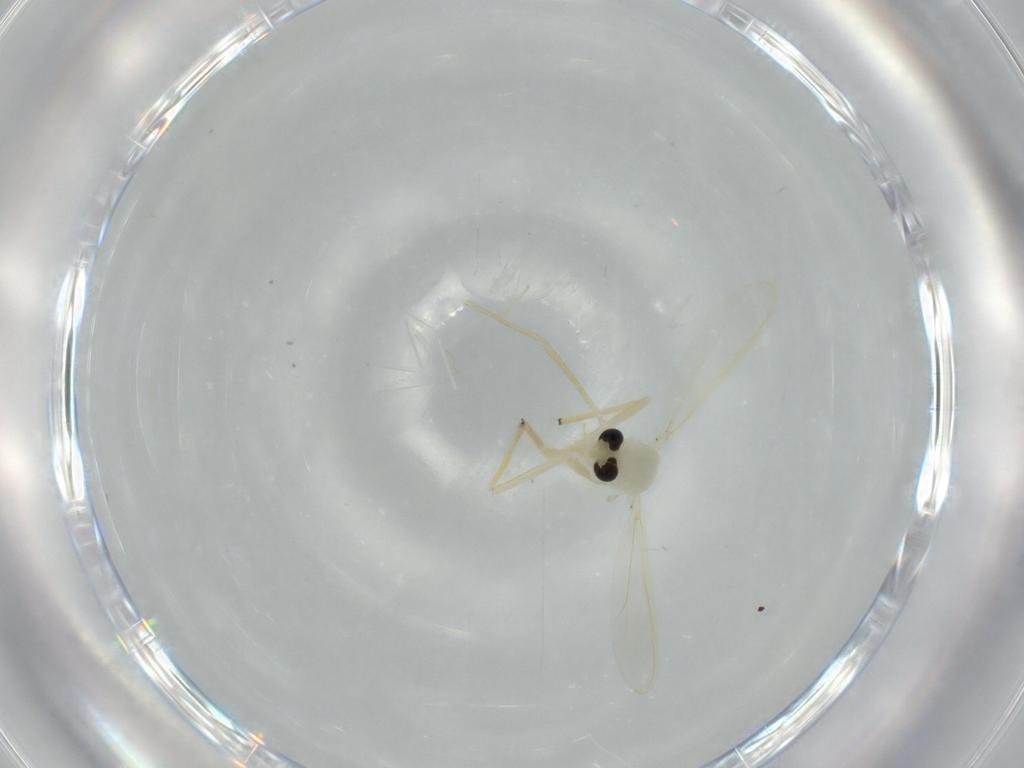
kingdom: Animalia
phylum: Arthropoda
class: Insecta
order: Diptera
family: Chironomidae
